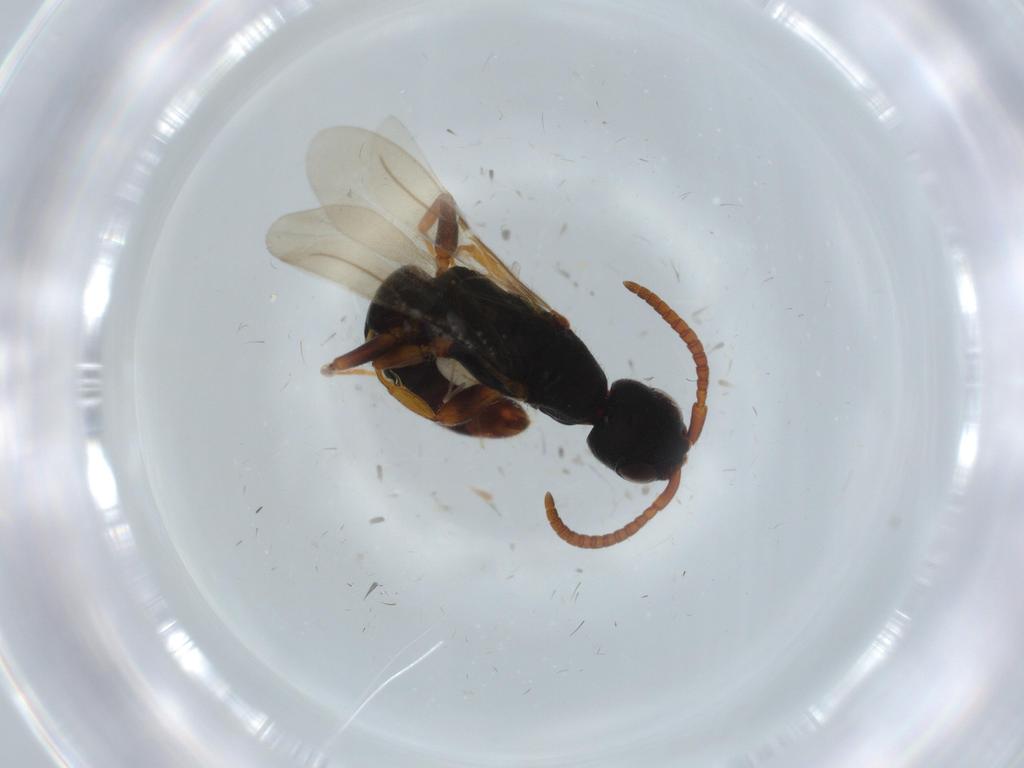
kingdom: Animalia
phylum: Arthropoda
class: Insecta
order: Hymenoptera
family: Bethylidae
